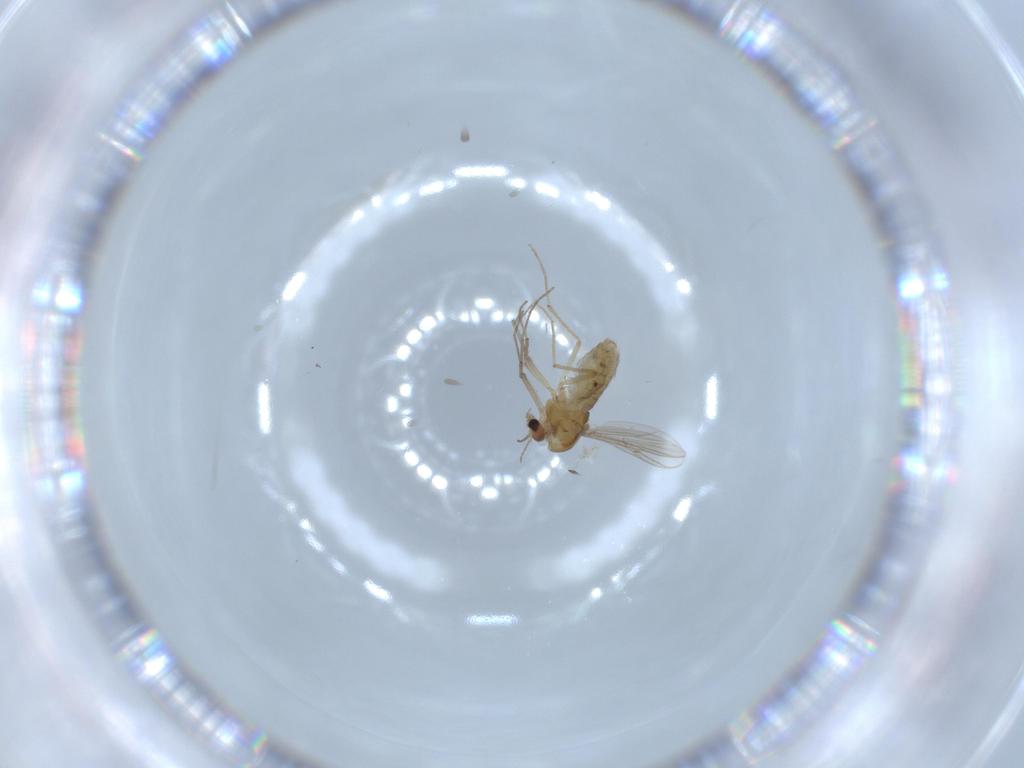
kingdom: Animalia
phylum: Arthropoda
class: Insecta
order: Diptera
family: Chironomidae
